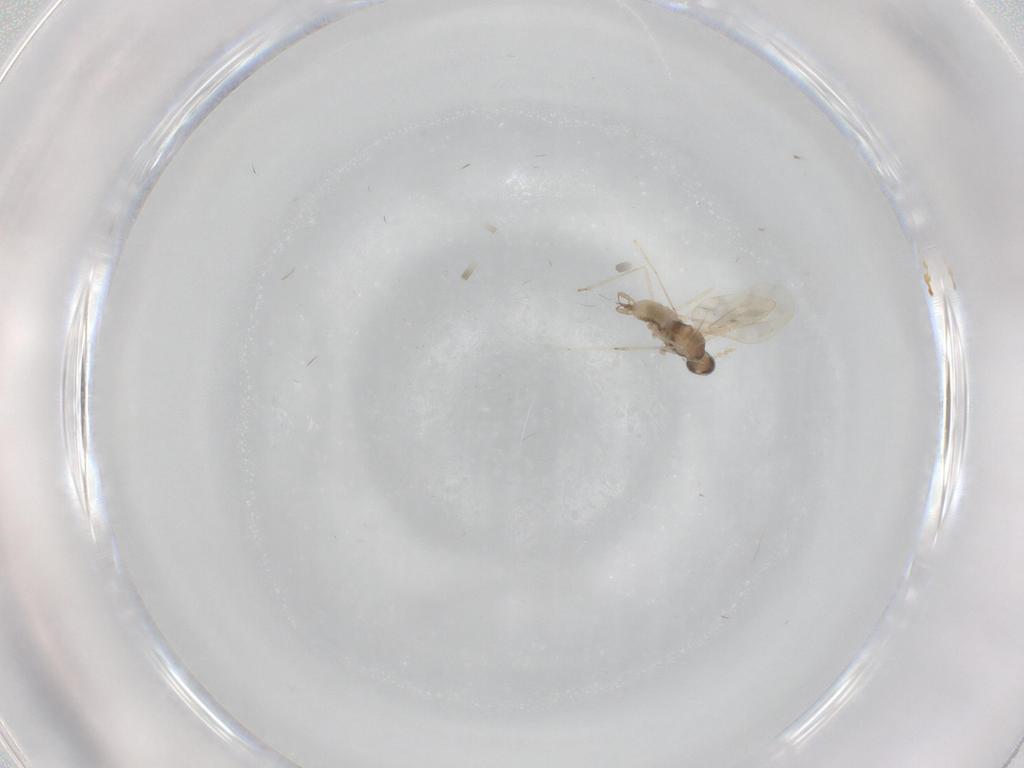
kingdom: Animalia
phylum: Arthropoda
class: Insecta
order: Diptera
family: Cecidomyiidae
